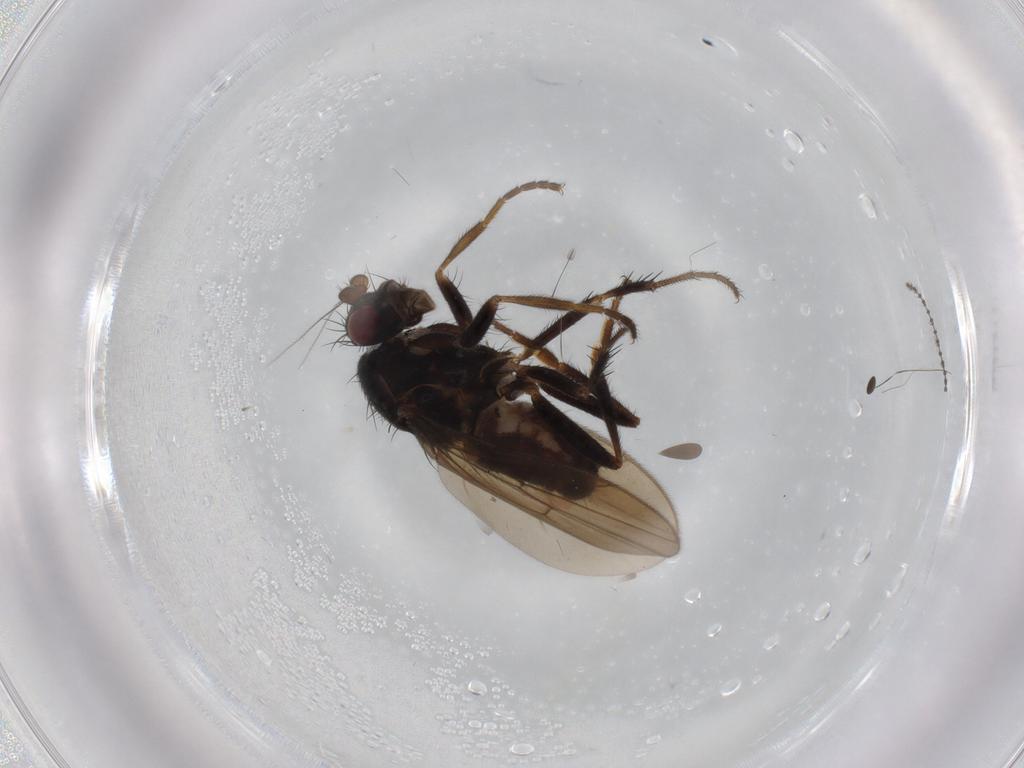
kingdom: Animalia
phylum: Arthropoda
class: Insecta
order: Diptera
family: Sphaeroceridae
